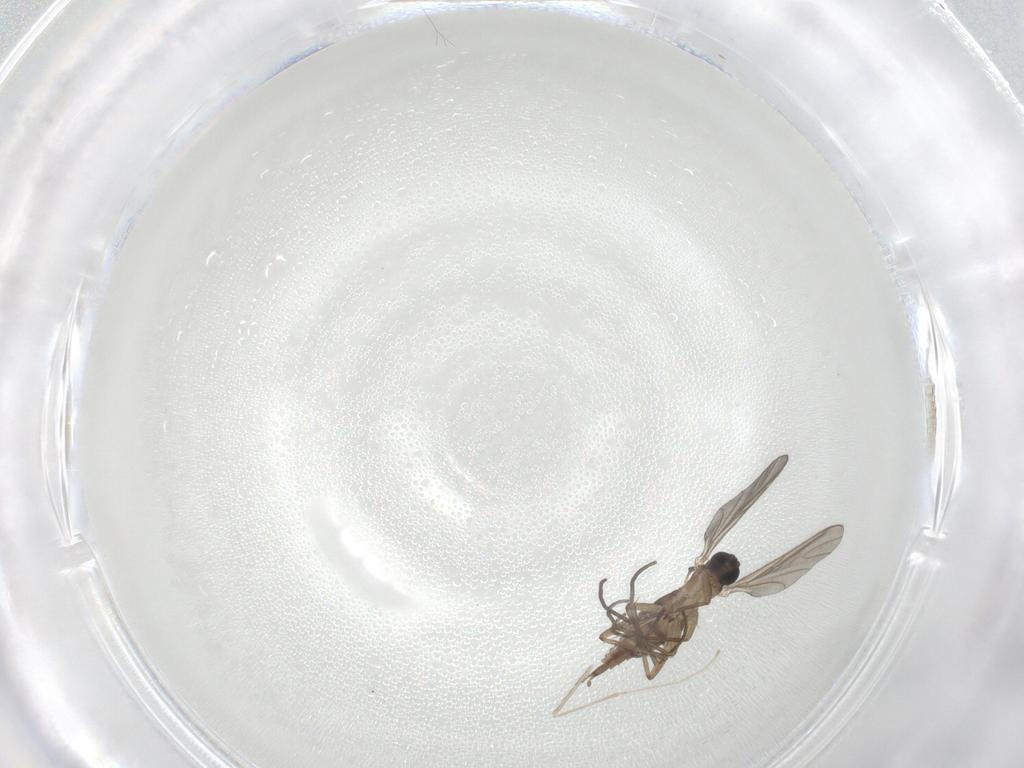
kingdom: Animalia
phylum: Arthropoda
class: Insecta
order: Diptera
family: Sciaridae
